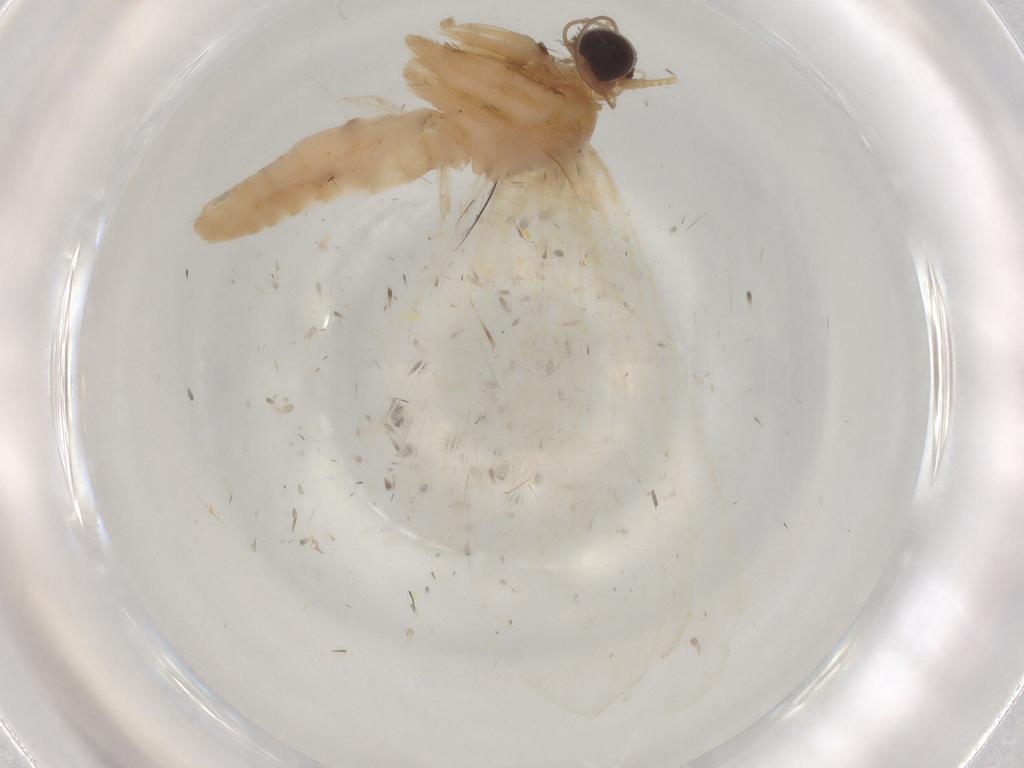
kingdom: Animalia
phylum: Arthropoda
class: Insecta
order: Lepidoptera
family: Geometridae
